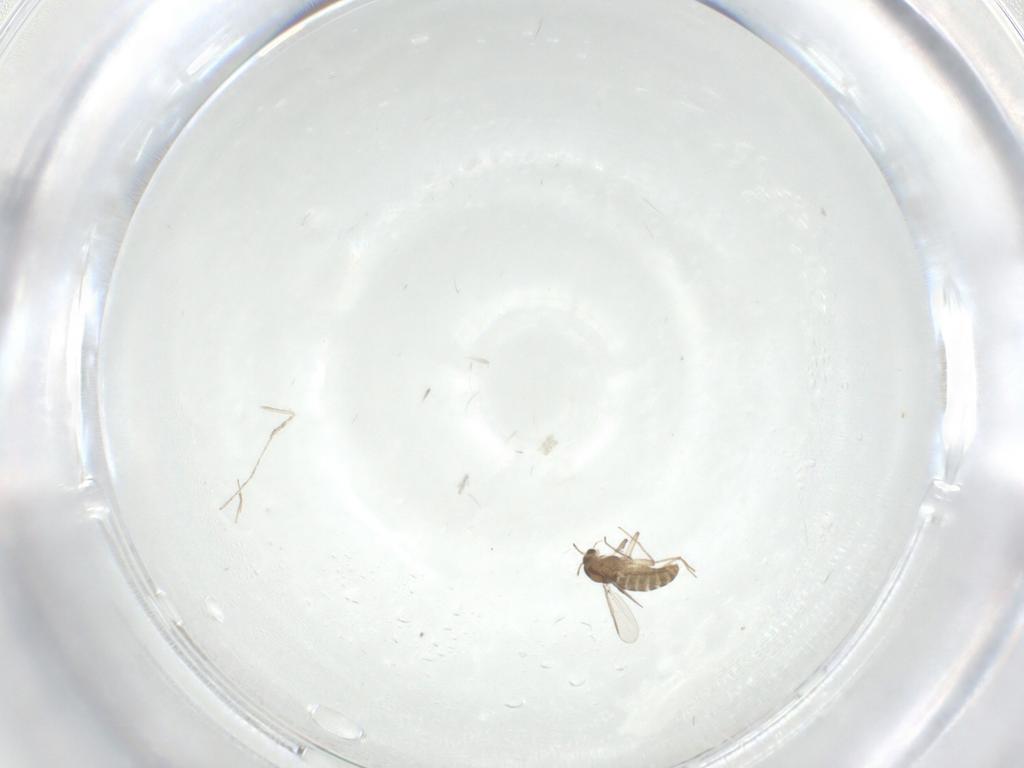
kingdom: Animalia
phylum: Arthropoda
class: Insecta
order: Diptera
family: Chironomidae
